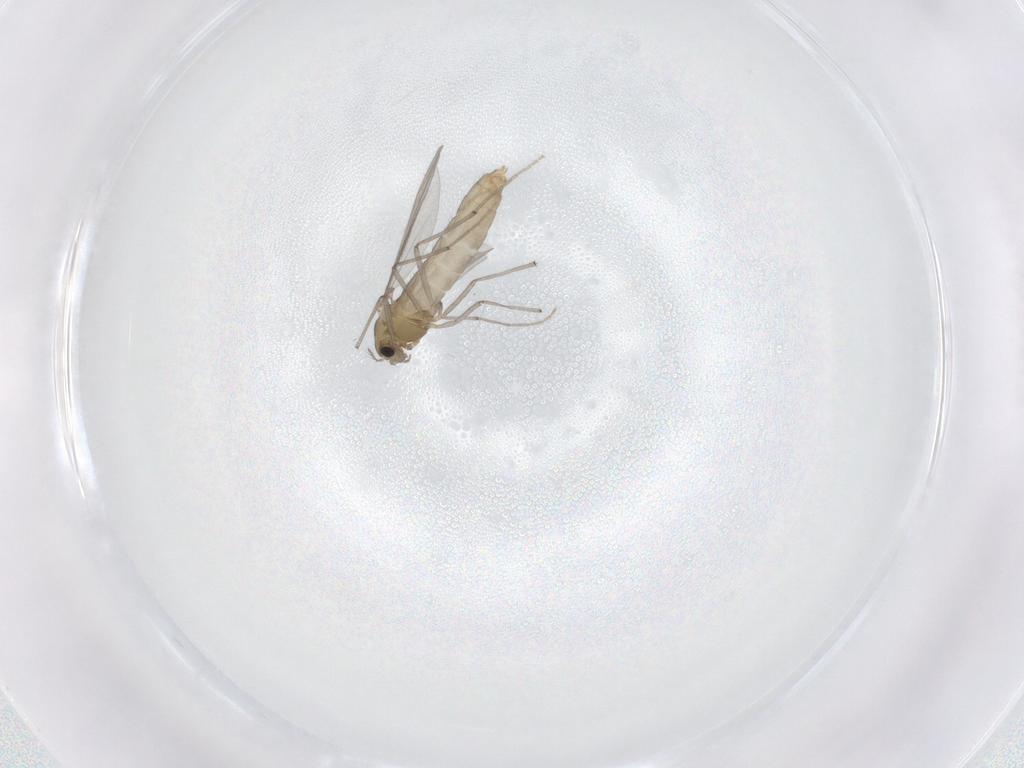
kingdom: Animalia
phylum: Arthropoda
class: Insecta
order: Diptera
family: Chironomidae
